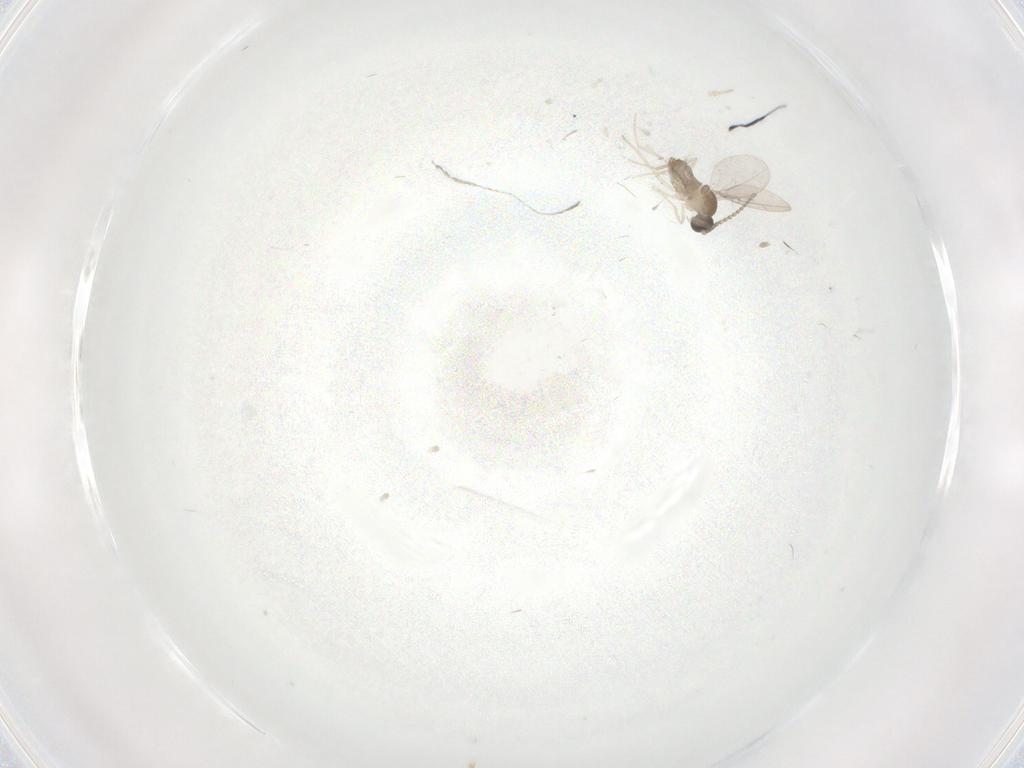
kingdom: Animalia
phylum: Arthropoda
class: Insecta
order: Diptera
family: Cecidomyiidae
